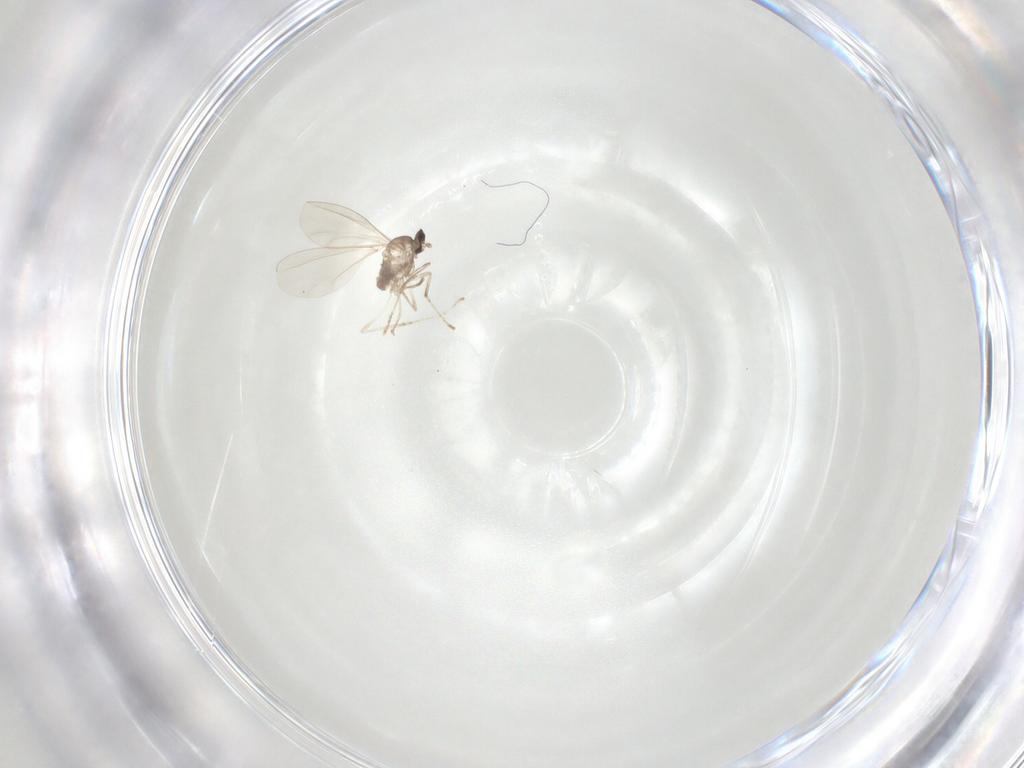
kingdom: Animalia
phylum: Arthropoda
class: Insecta
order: Diptera
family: Cecidomyiidae
